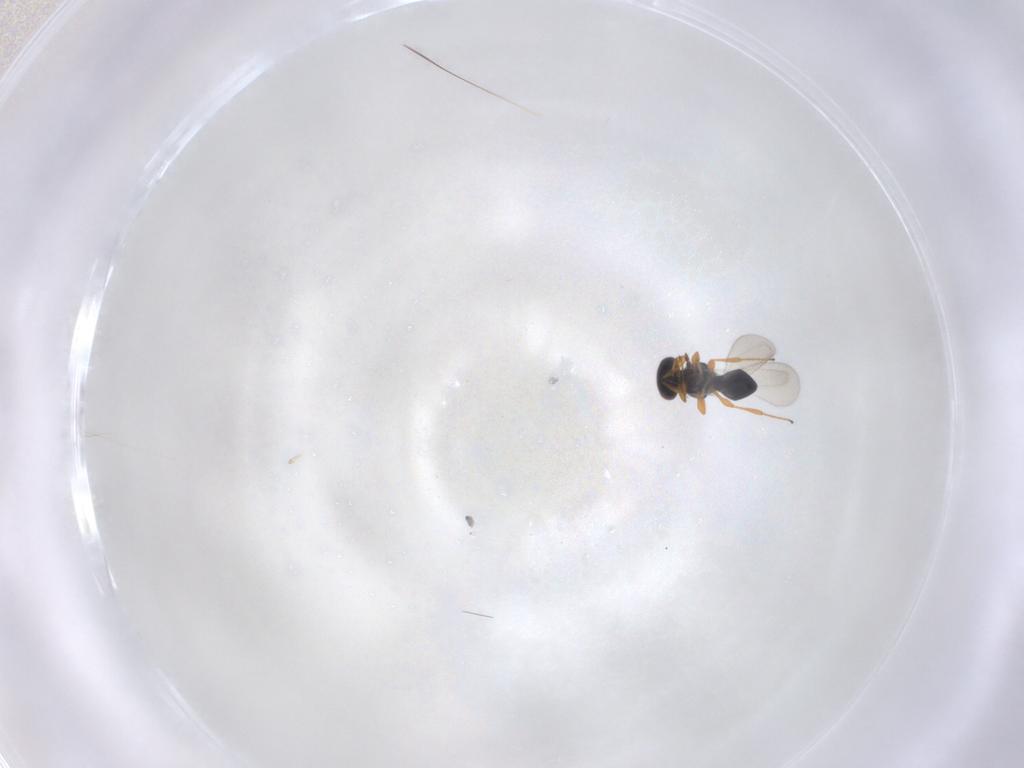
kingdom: Animalia
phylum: Arthropoda
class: Insecta
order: Hymenoptera
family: Platygastridae
